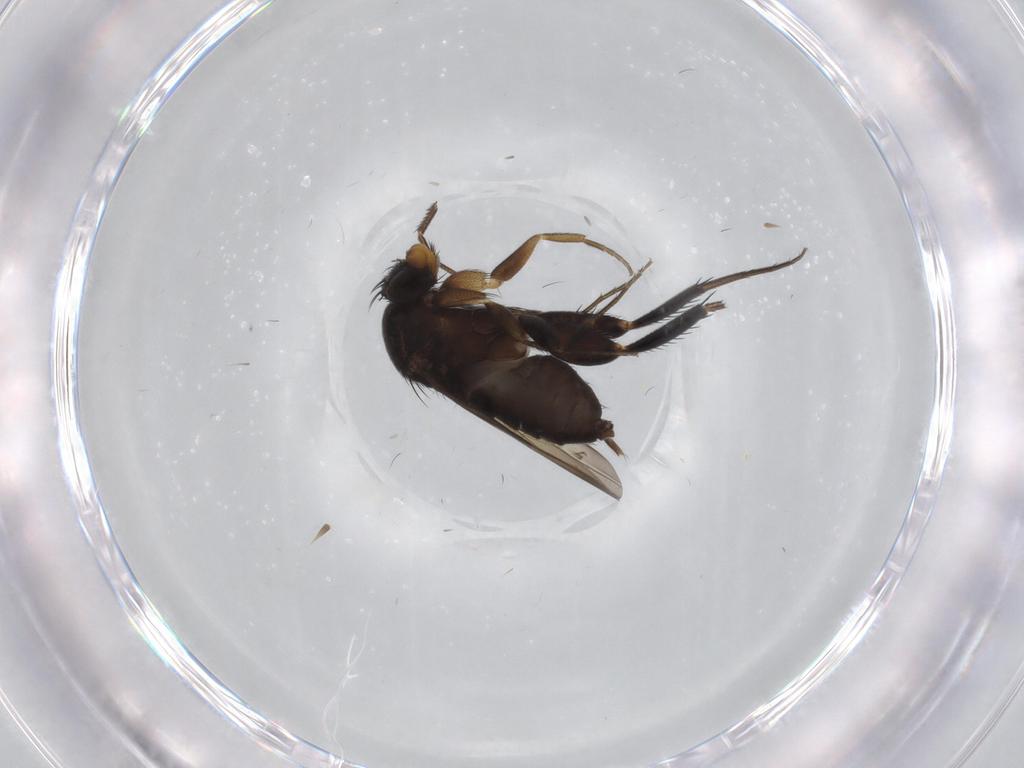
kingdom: Animalia
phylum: Arthropoda
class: Insecta
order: Diptera
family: Phoridae
